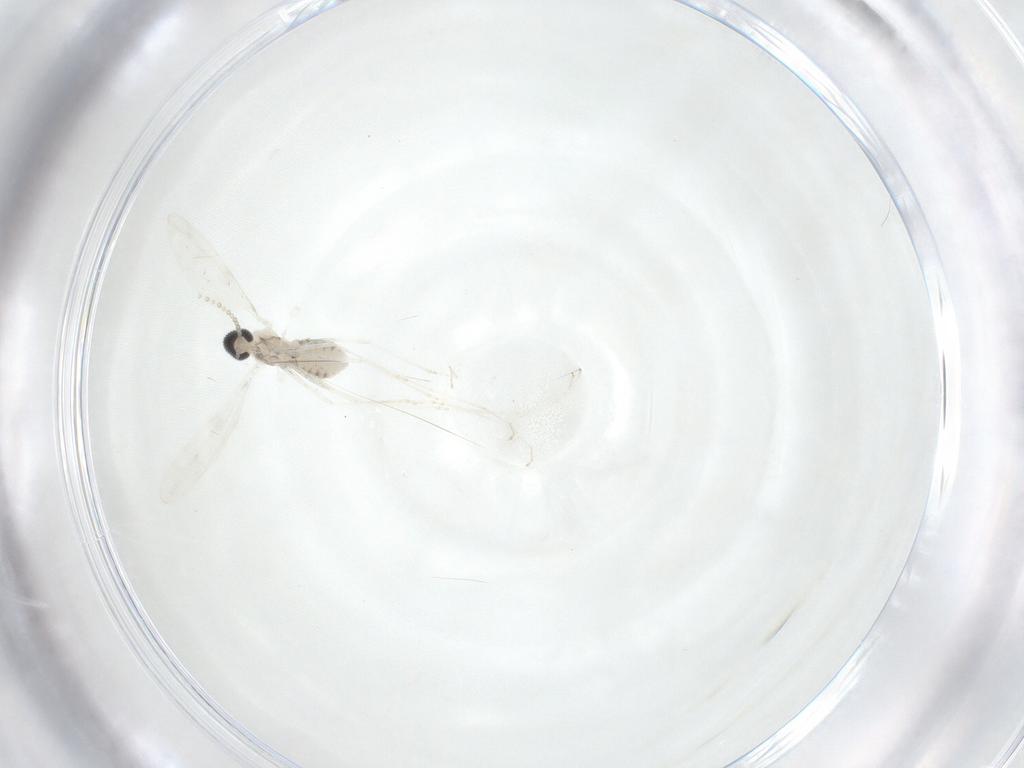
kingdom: Animalia
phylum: Arthropoda
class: Insecta
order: Diptera
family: Cecidomyiidae
